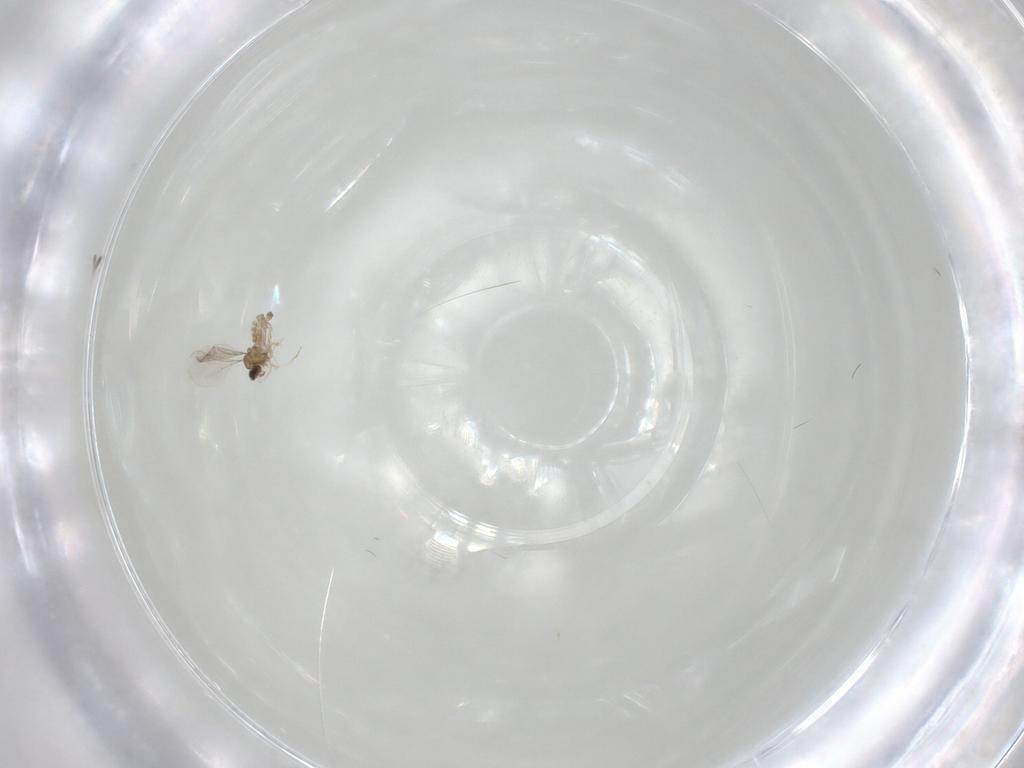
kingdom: Animalia
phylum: Arthropoda
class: Insecta
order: Diptera
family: Cecidomyiidae
